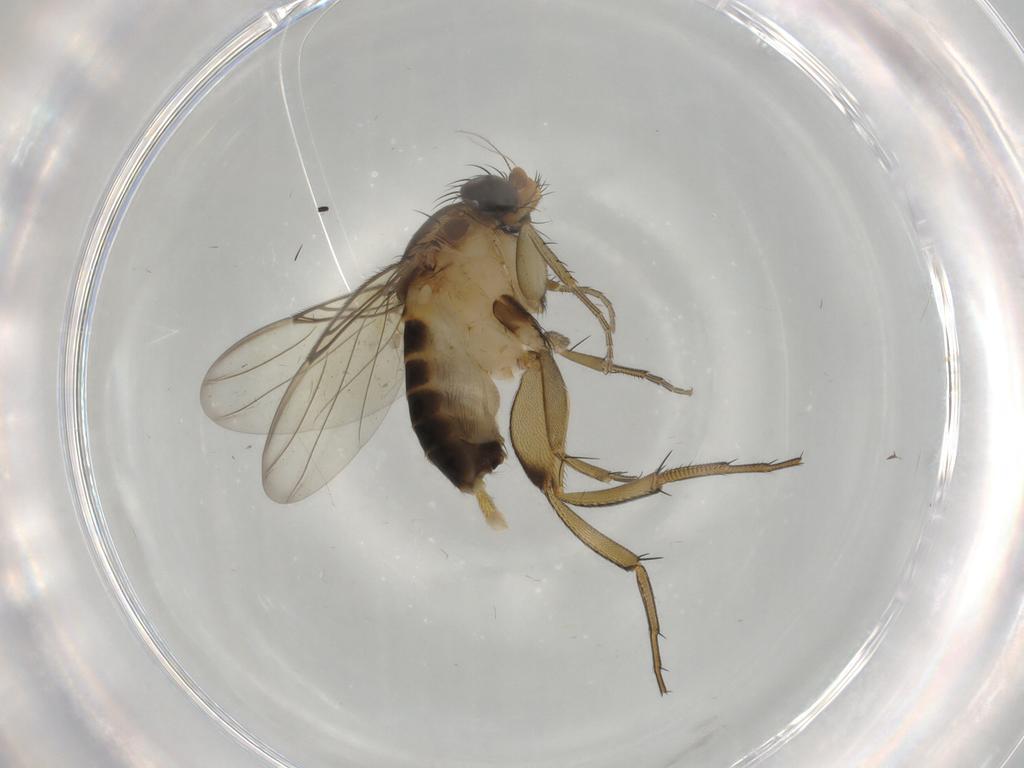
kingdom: Animalia
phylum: Arthropoda
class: Insecta
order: Diptera
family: Phoridae
